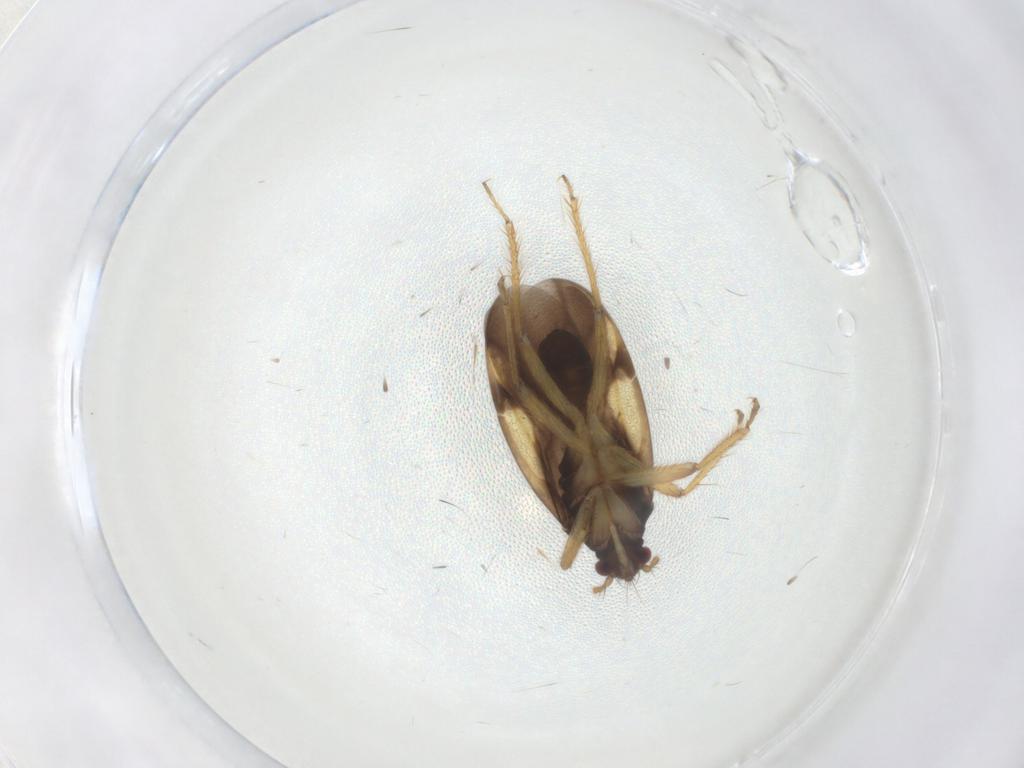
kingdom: Animalia
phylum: Arthropoda
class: Insecta
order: Hemiptera
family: Ceratocombidae
